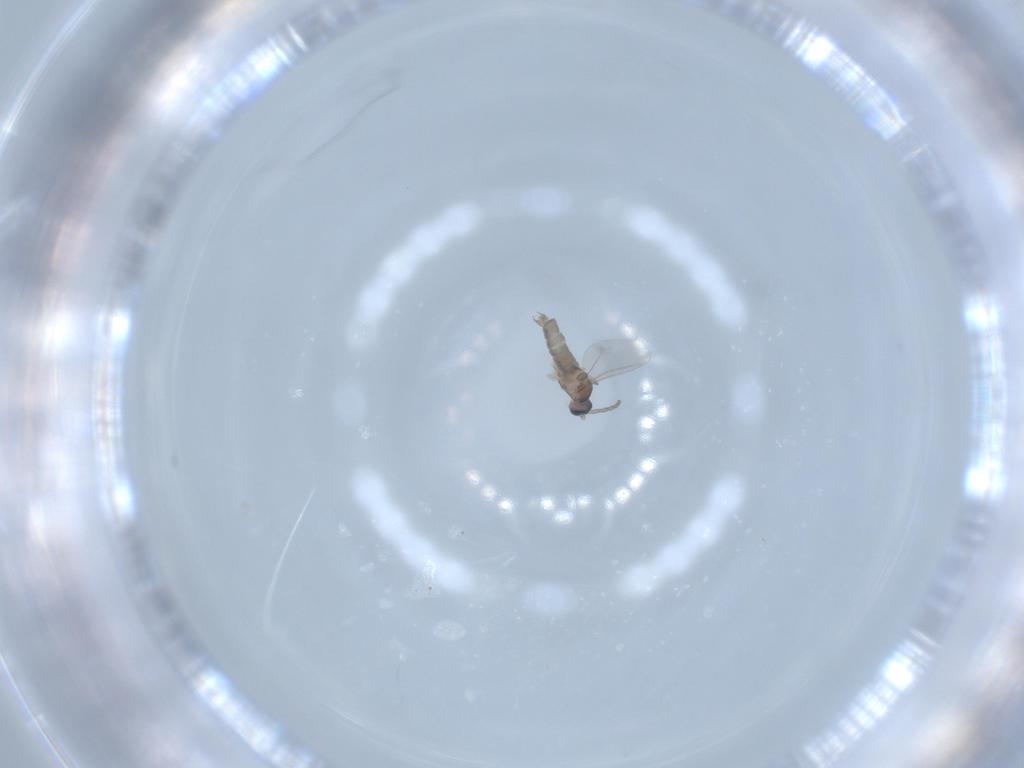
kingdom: Animalia
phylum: Arthropoda
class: Insecta
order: Diptera
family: Cecidomyiidae
